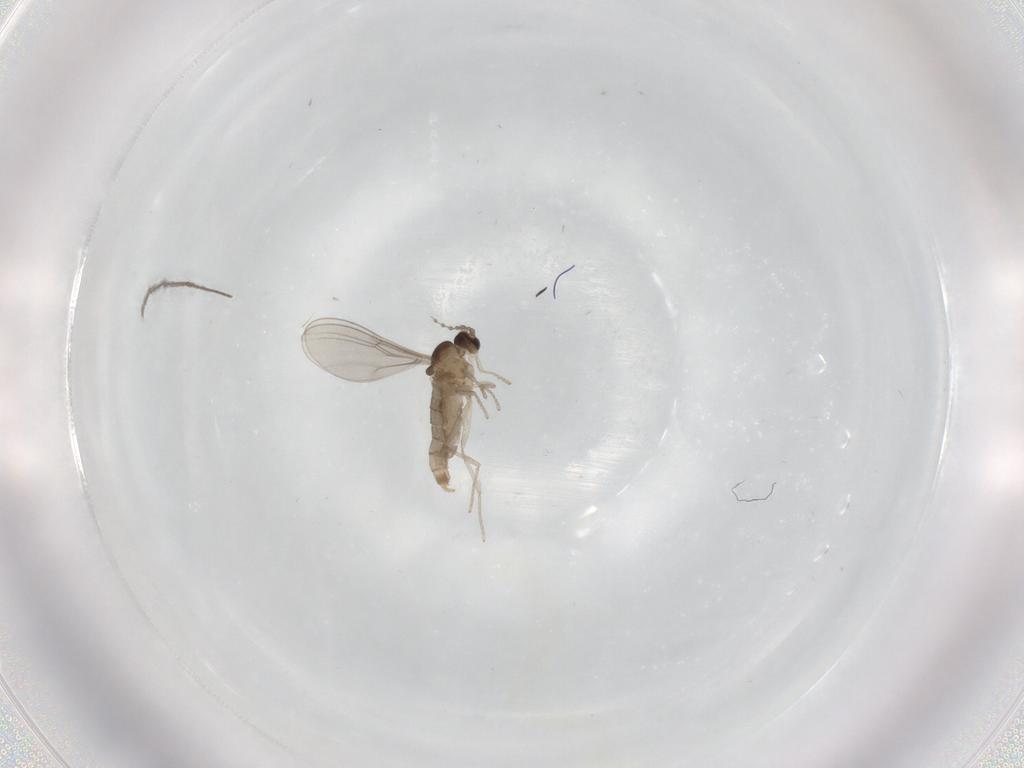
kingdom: Animalia
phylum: Arthropoda
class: Insecta
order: Diptera
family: Cecidomyiidae
